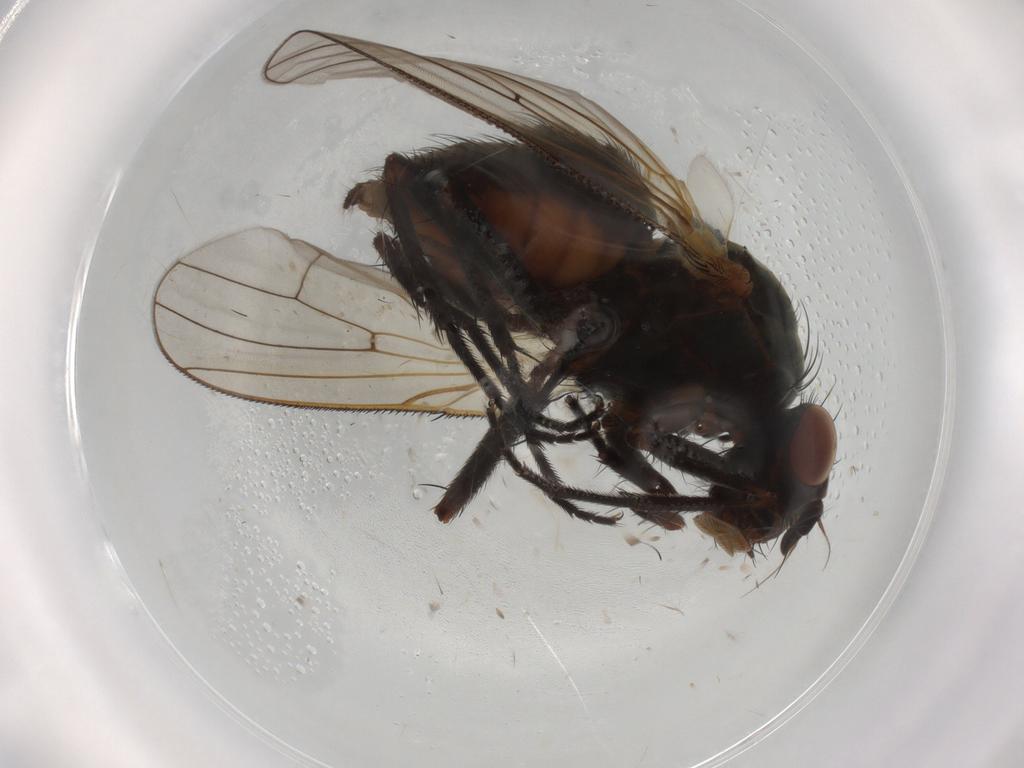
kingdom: Animalia
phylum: Arthropoda
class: Insecta
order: Diptera
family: Anthomyiidae
